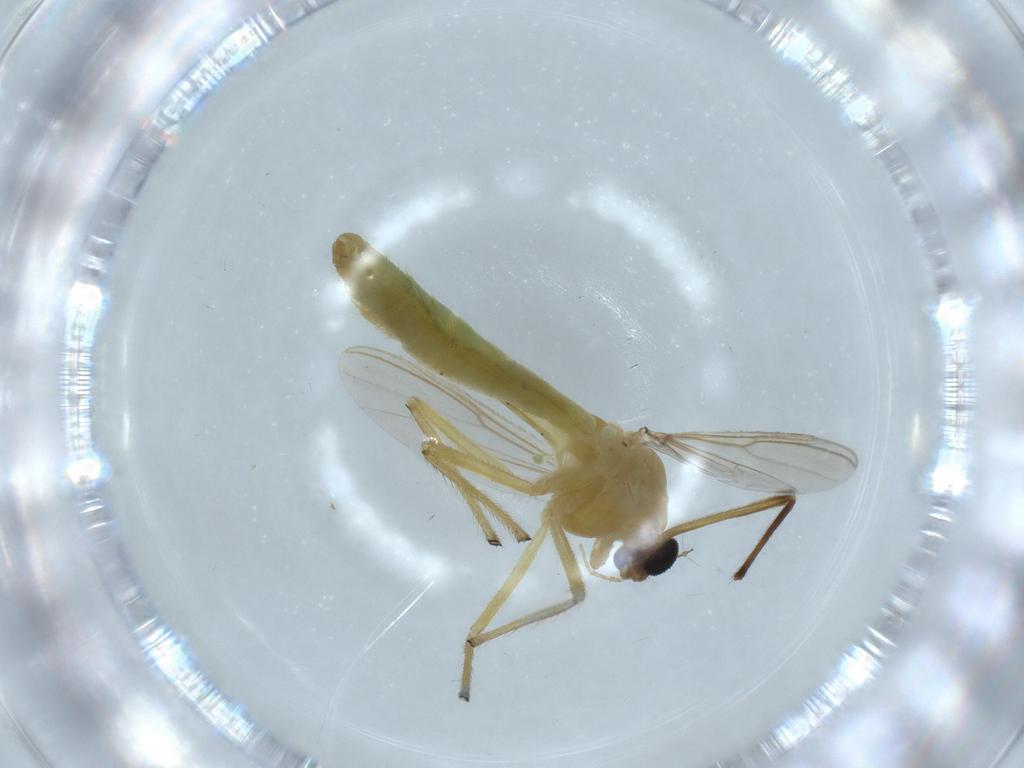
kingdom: Animalia
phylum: Arthropoda
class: Insecta
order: Diptera
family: Chironomidae
